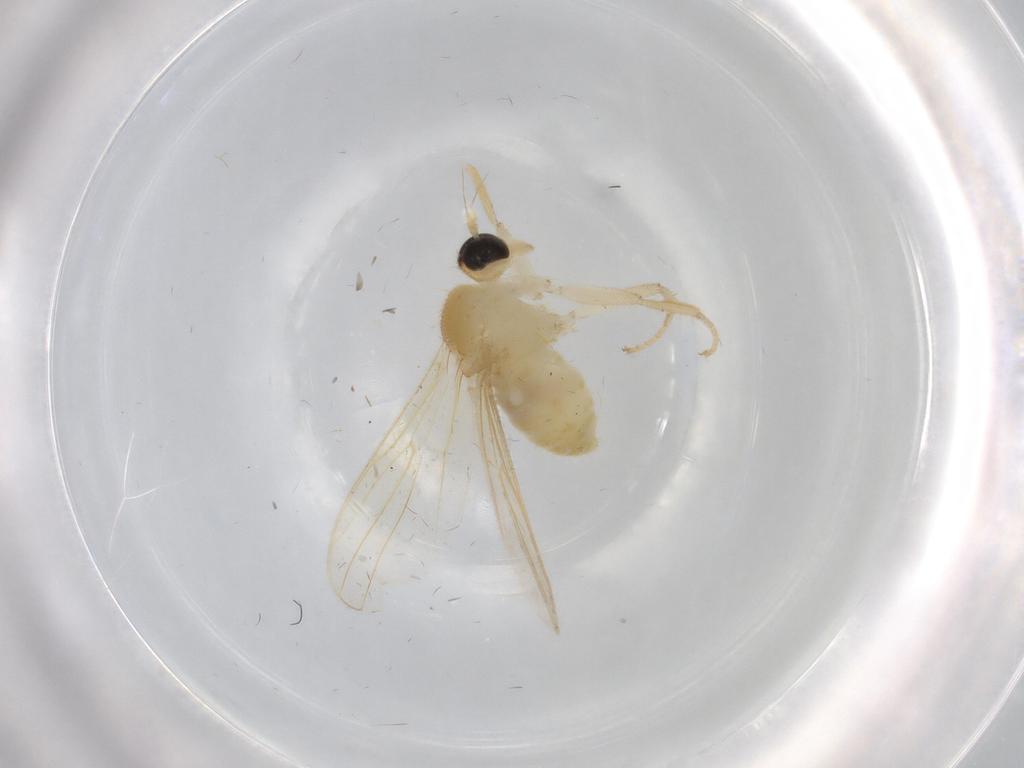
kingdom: Animalia
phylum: Arthropoda
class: Insecta
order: Diptera
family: Hybotidae
